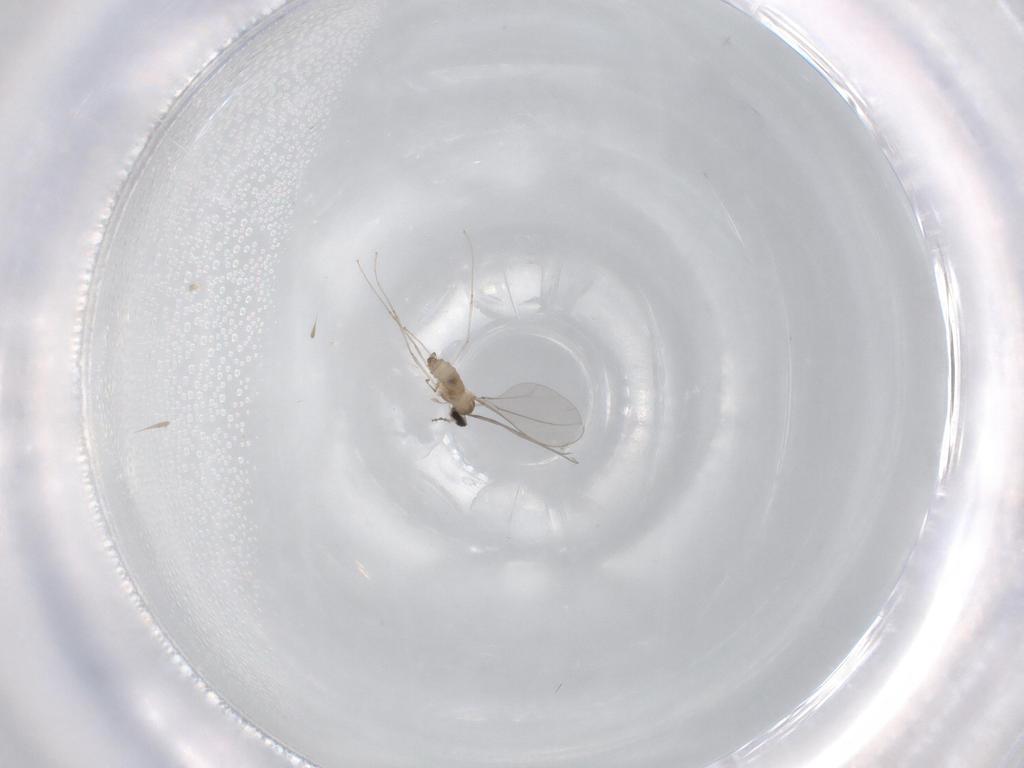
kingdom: Animalia
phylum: Arthropoda
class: Insecta
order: Diptera
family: Cecidomyiidae
